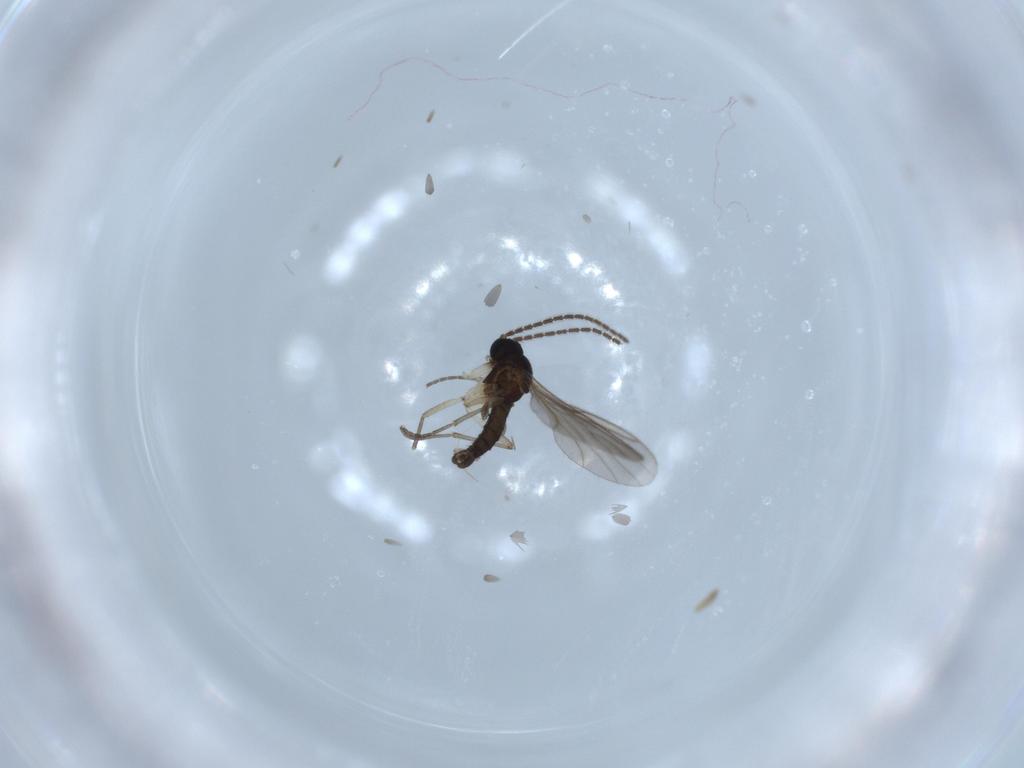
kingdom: Animalia
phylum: Arthropoda
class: Insecta
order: Diptera
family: Sciaridae
